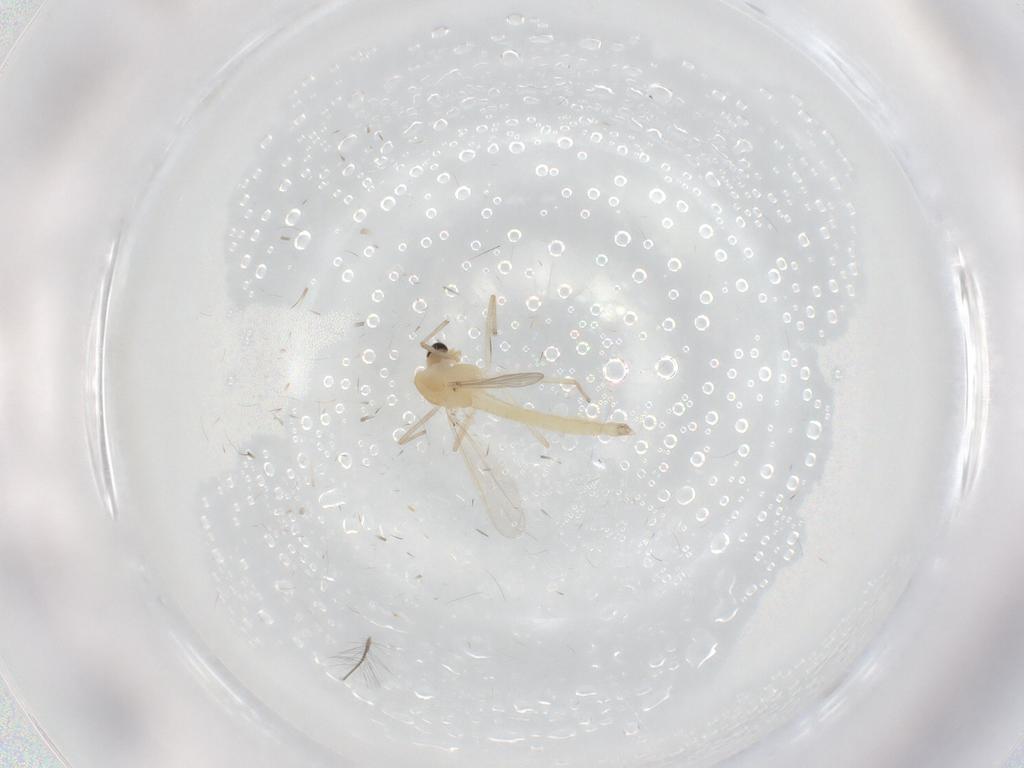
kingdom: Animalia
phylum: Arthropoda
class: Insecta
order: Diptera
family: Chironomidae
